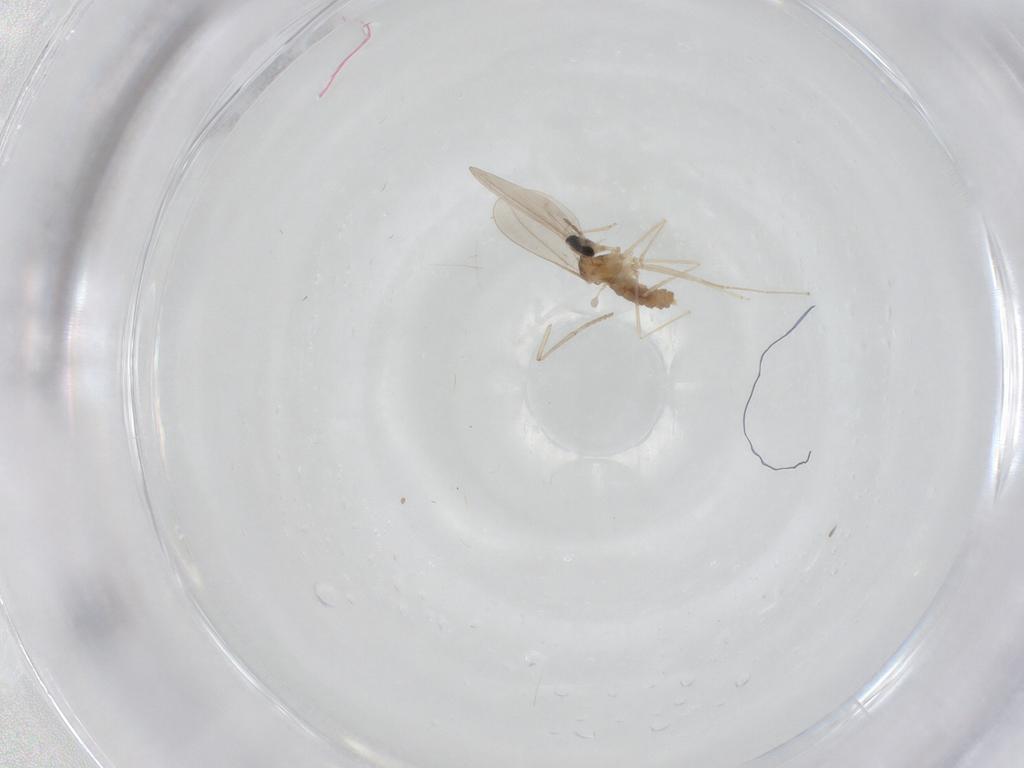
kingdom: Animalia
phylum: Arthropoda
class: Insecta
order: Diptera
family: Cecidomyiidae
